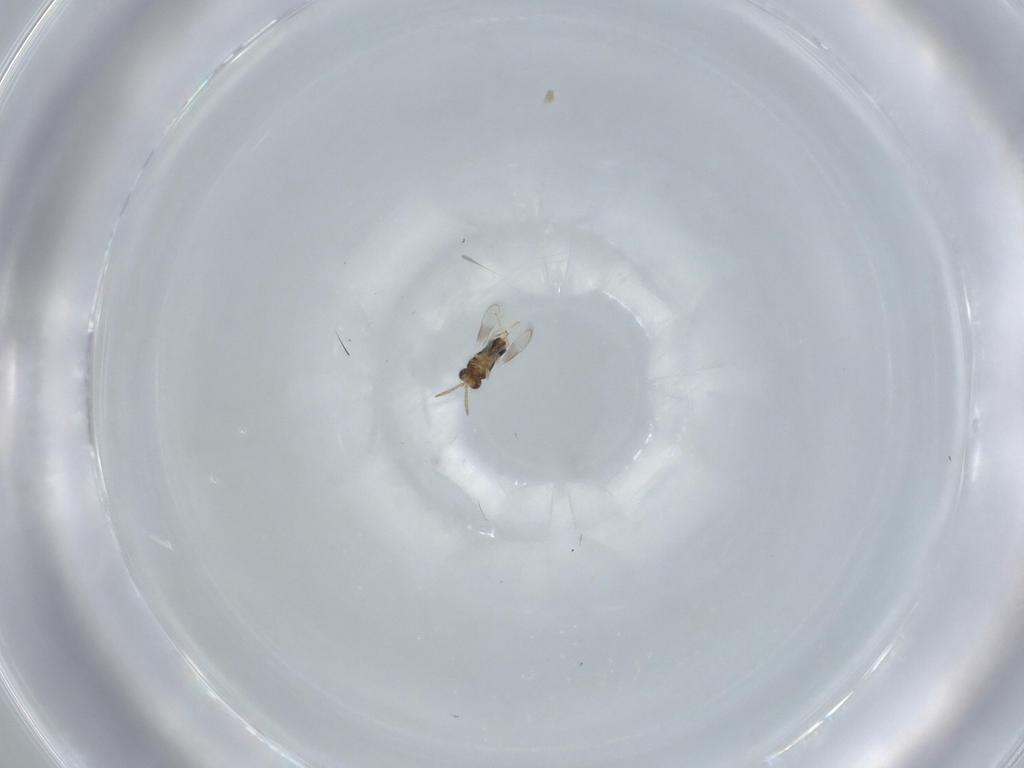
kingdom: Animalia
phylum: Arthropoda
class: Insecta
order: Hymenoptera
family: Aphelinidae
